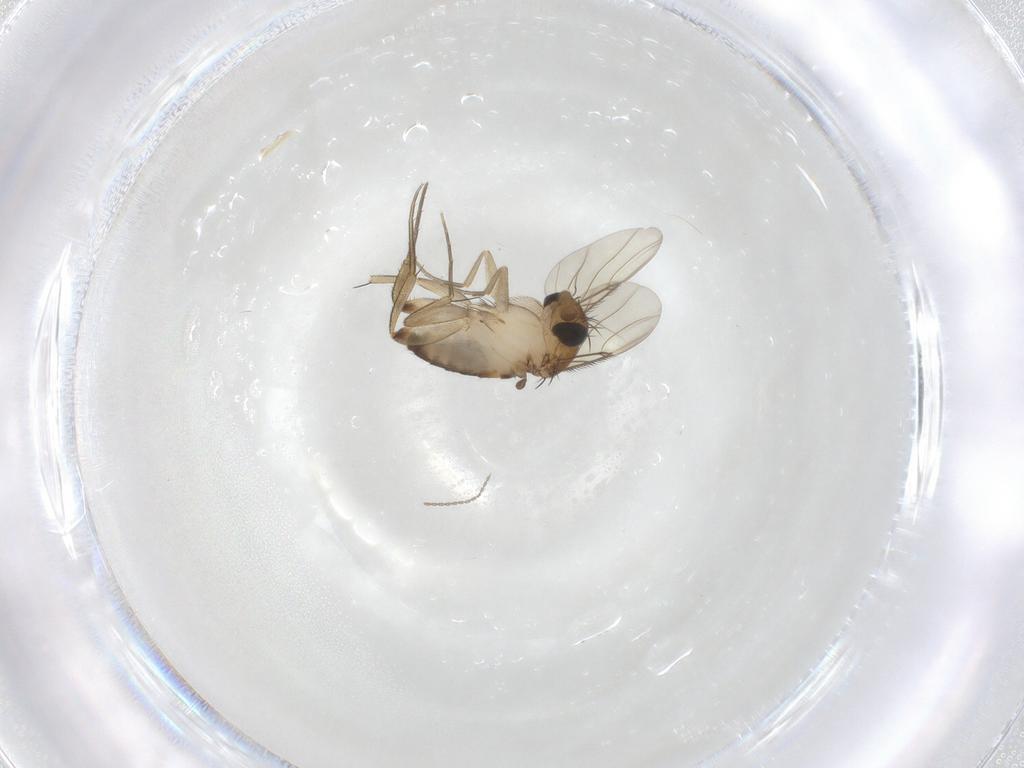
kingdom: Animalia
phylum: Arthropoda
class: Insecta
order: Diptera
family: Phoridae
